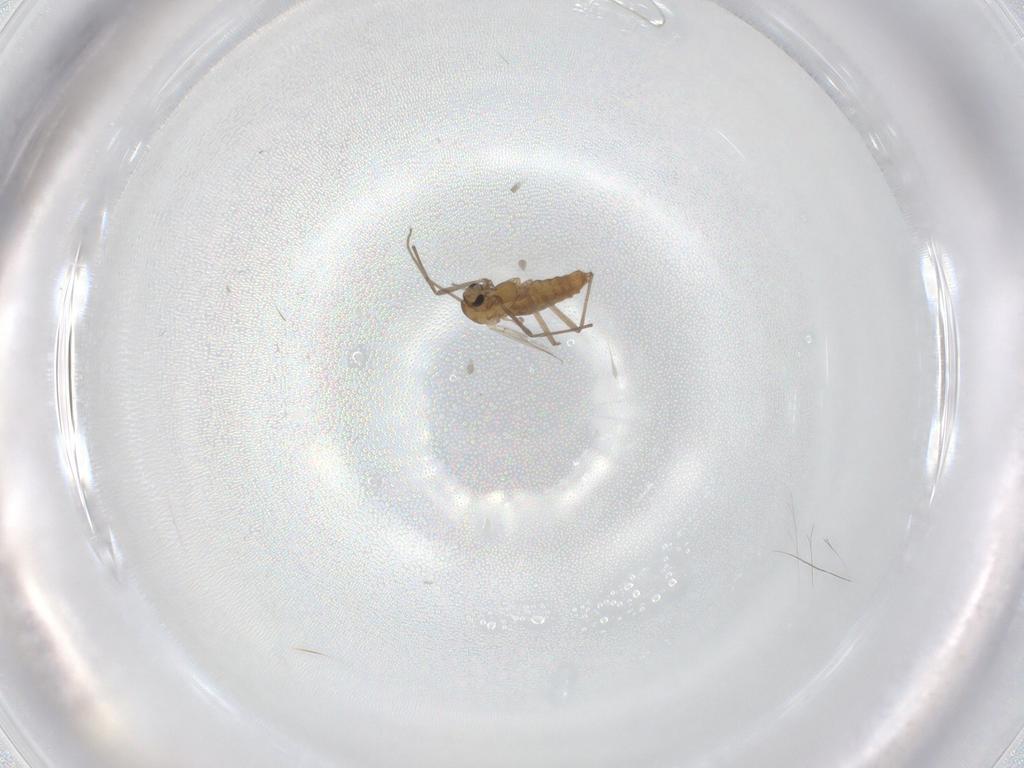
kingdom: Animalia
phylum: Arthropoda
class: Insecta
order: Diptera
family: Chironomidae
